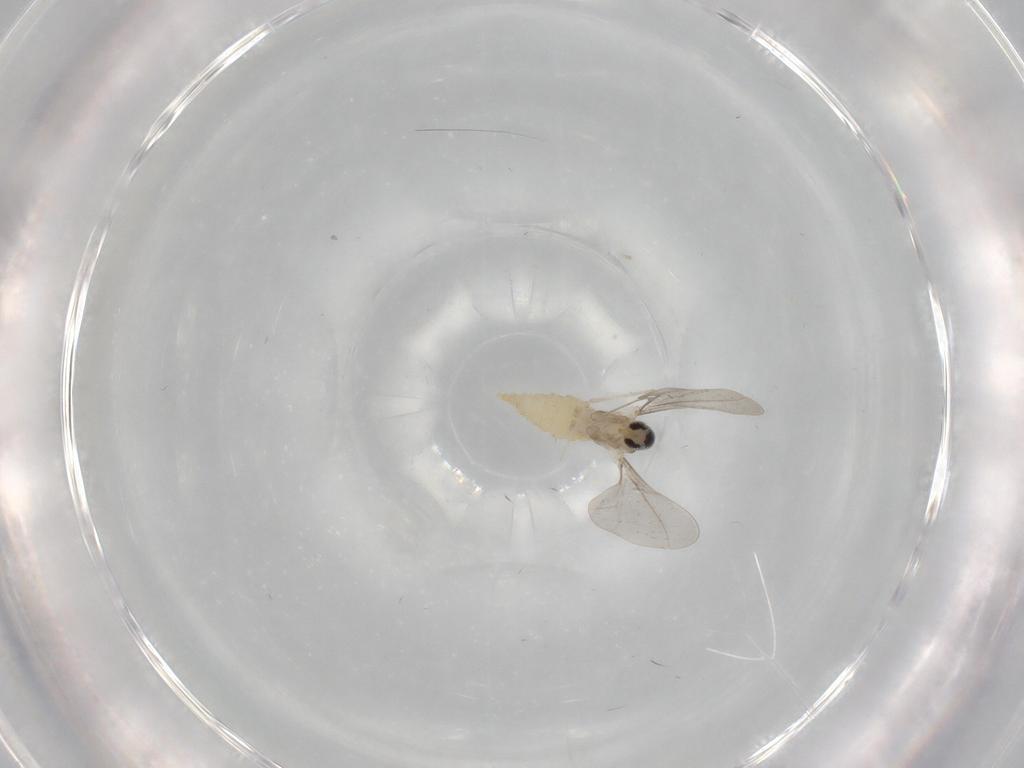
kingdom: Animalia
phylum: Arthropoda
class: Insecta
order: Diptera
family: Cecidomyiidae
